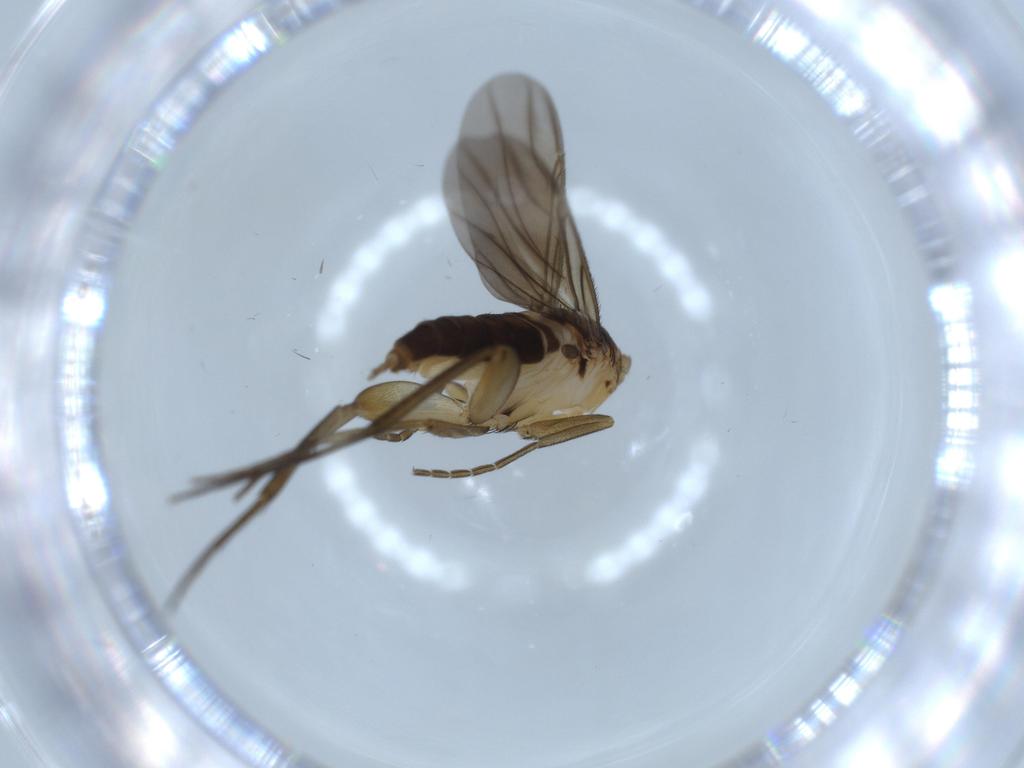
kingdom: Animalia
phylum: Arthropoda
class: Insecta
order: Diptera
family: Phoridae
